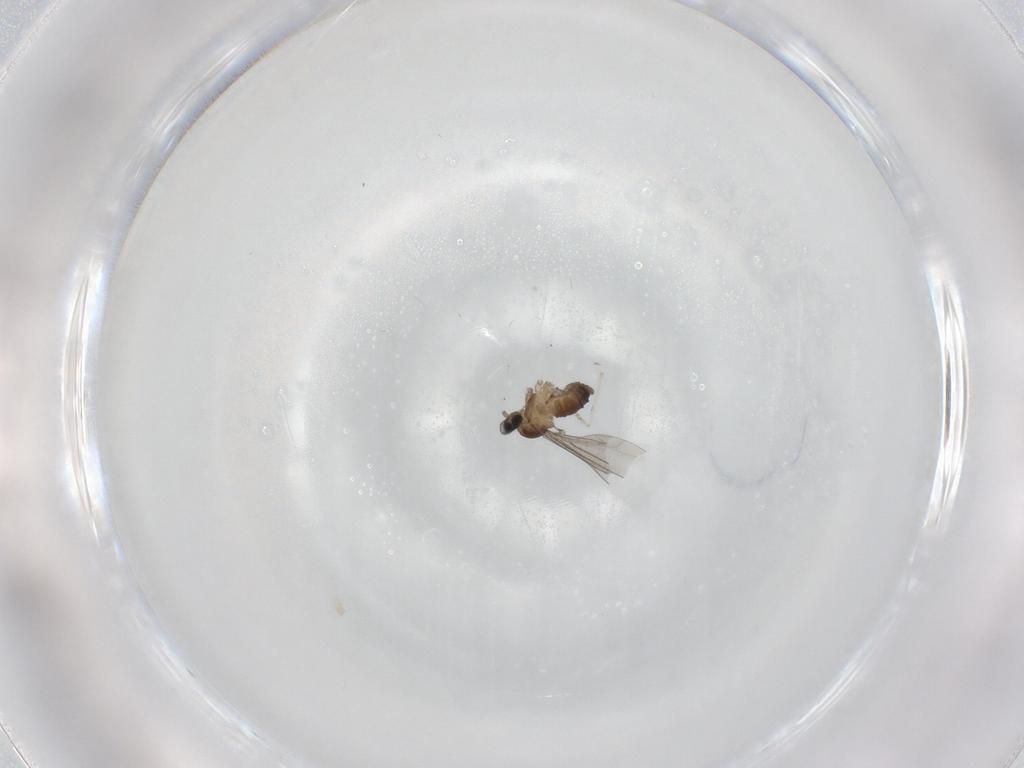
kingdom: Animalia
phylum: Arthropoda
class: Insecta
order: Diptera
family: Cecidomyiidae
